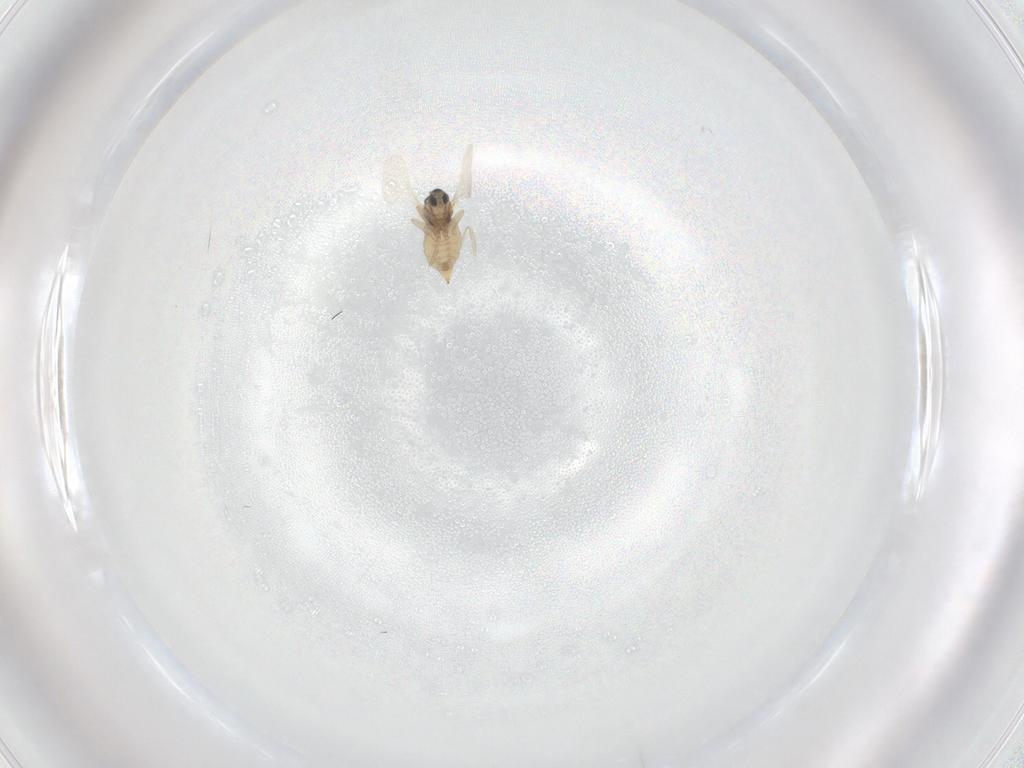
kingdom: Animalia
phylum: Arthropoda
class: Insecta
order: Diptera
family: Cecidomyiidae
